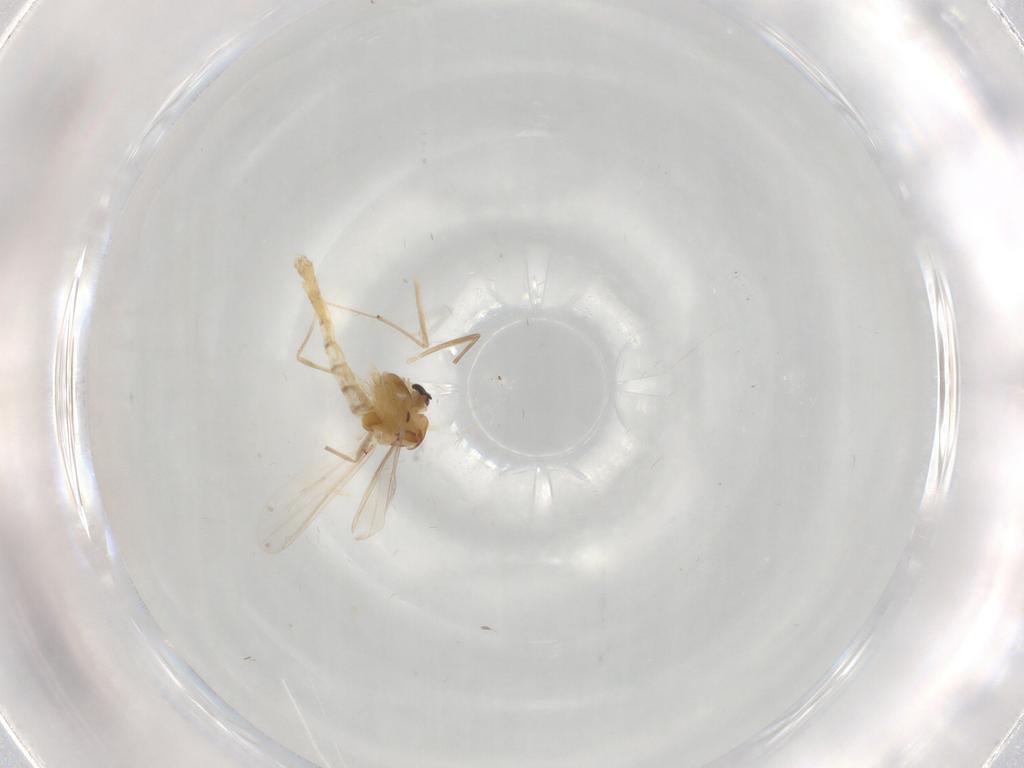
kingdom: Animalia
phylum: Arthropoda
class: Insecta
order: Diptera
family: Chironomidae
